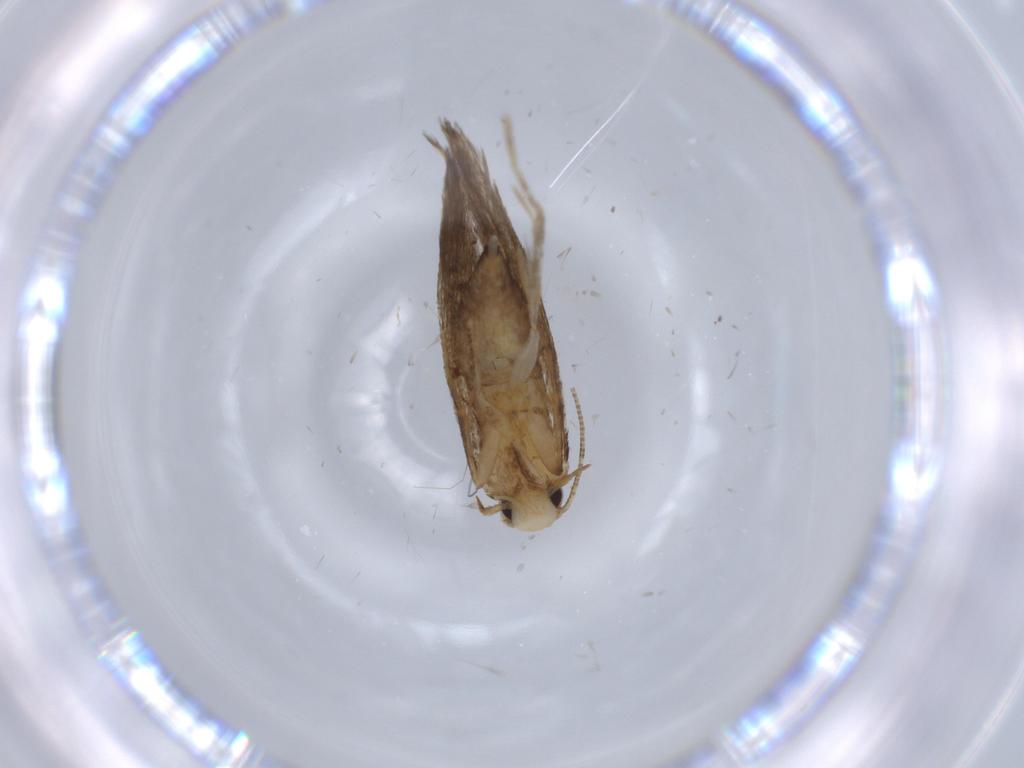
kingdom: Animalia
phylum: Arthropoda
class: Insecta
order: Lepidoptera
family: Tineidae
